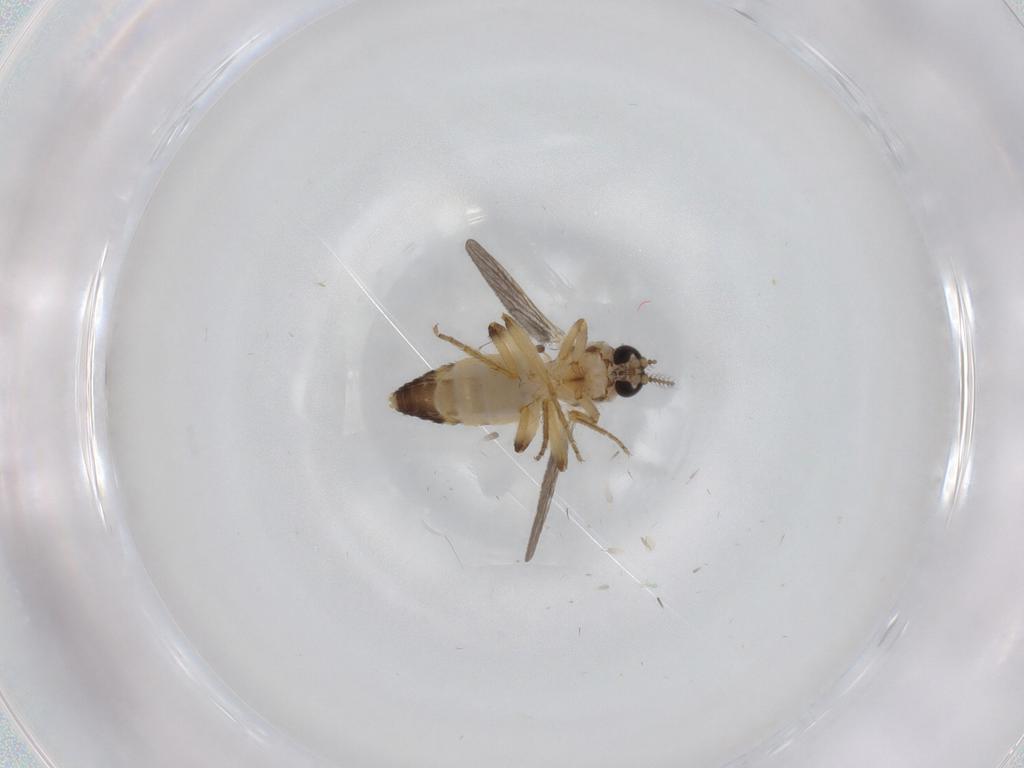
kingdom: Animalia
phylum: Arthropoda
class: Insecta
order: Diptera
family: Ceratopogonidae
